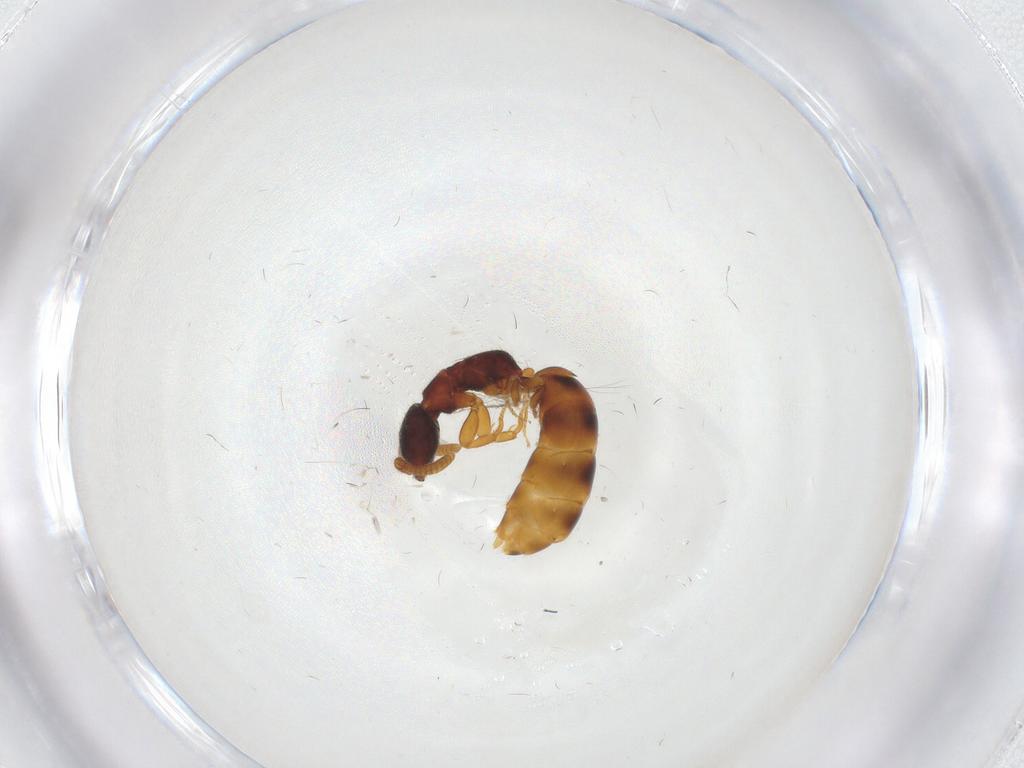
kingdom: Animalia
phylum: Arthropoda
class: Insecta
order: Hymenoptera
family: Bethylidae
